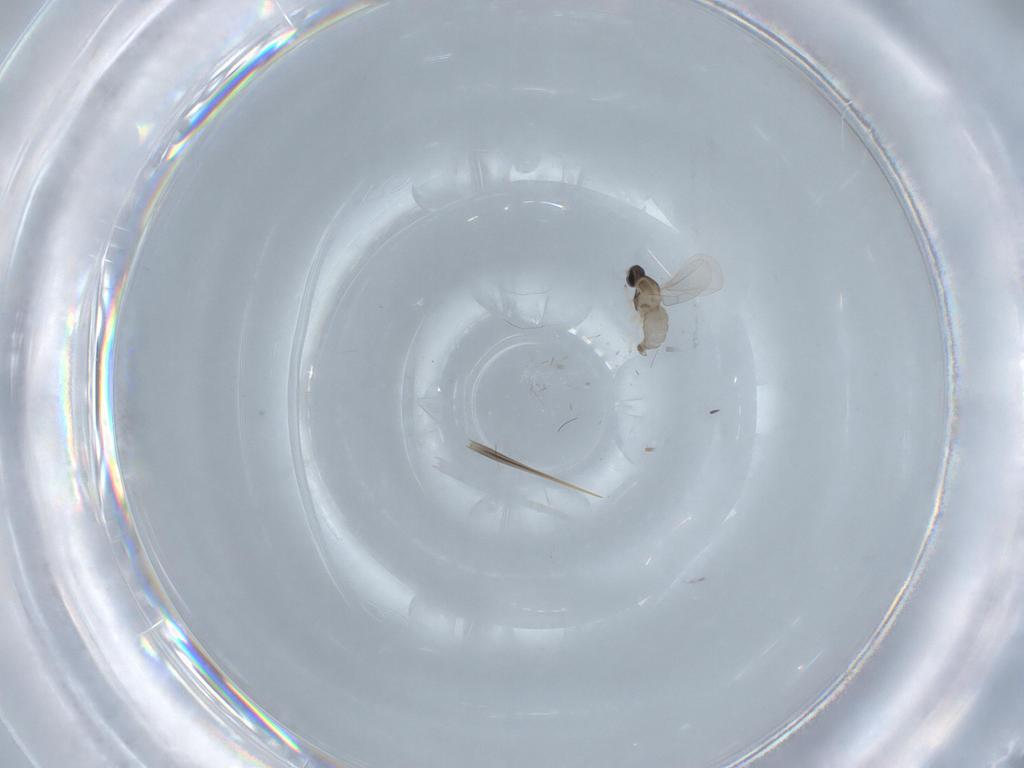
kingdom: Animalia
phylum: Arthropoda
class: Insecta
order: Diptera
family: Cecidomyiidae
